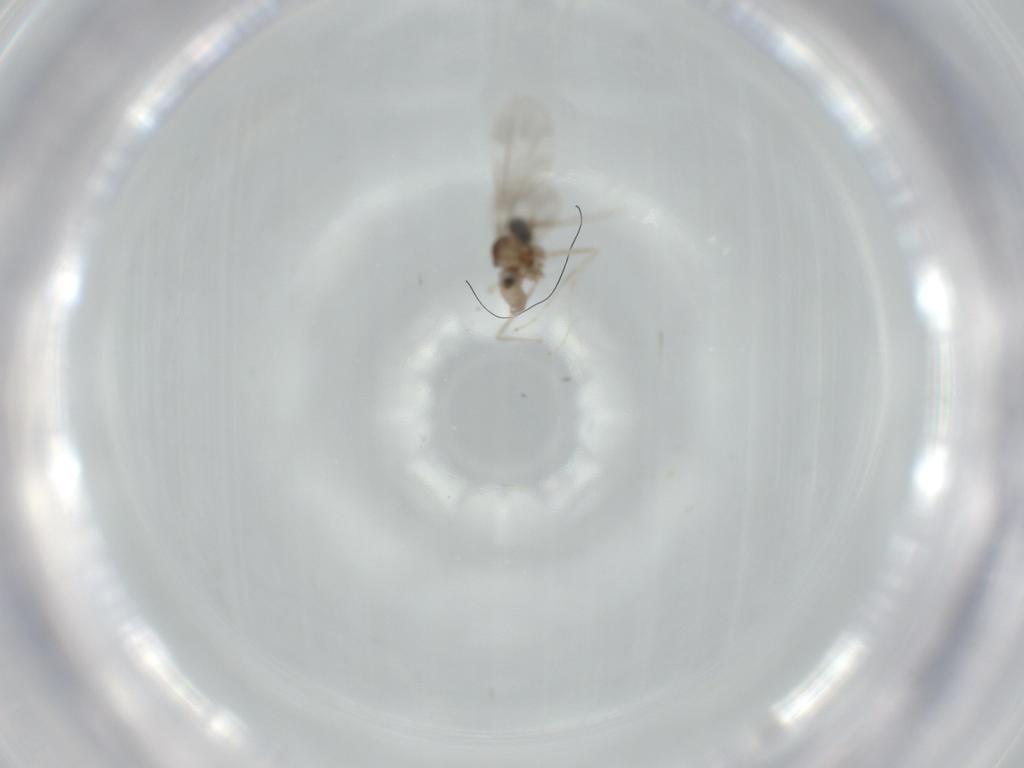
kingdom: Animalia
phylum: Arthropoda
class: Insecta
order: Diptera
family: Cecidomyiidae
